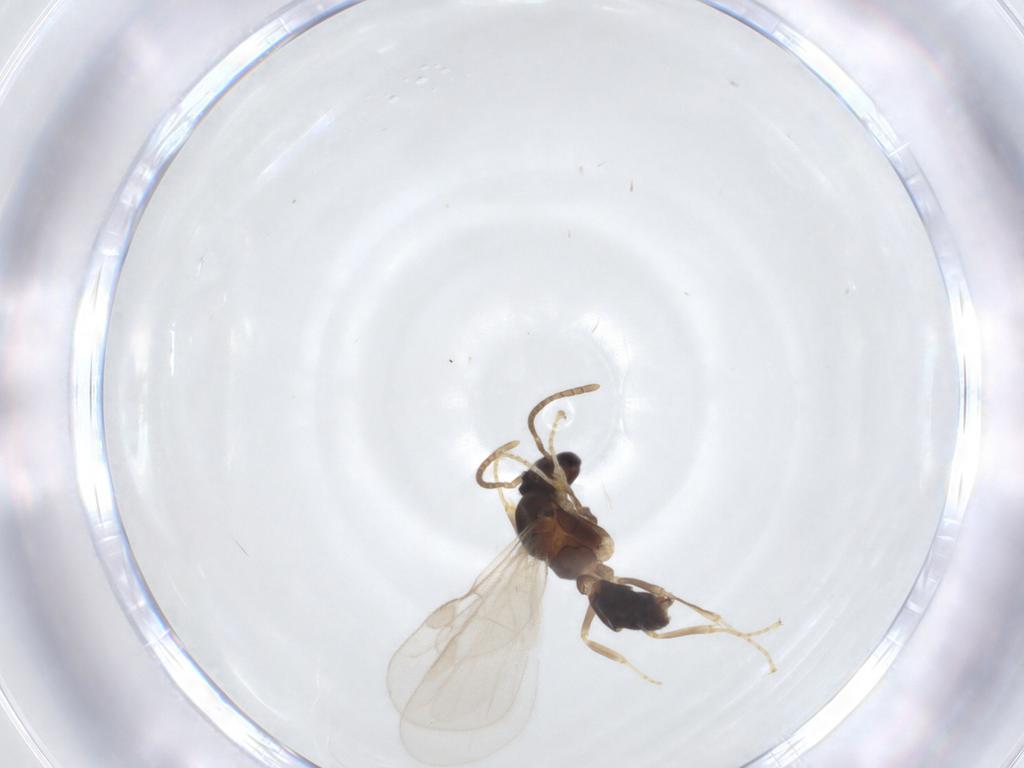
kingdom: Animalia
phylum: Arthropoda
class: Insecta
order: Hymenoptera
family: Formicidae
